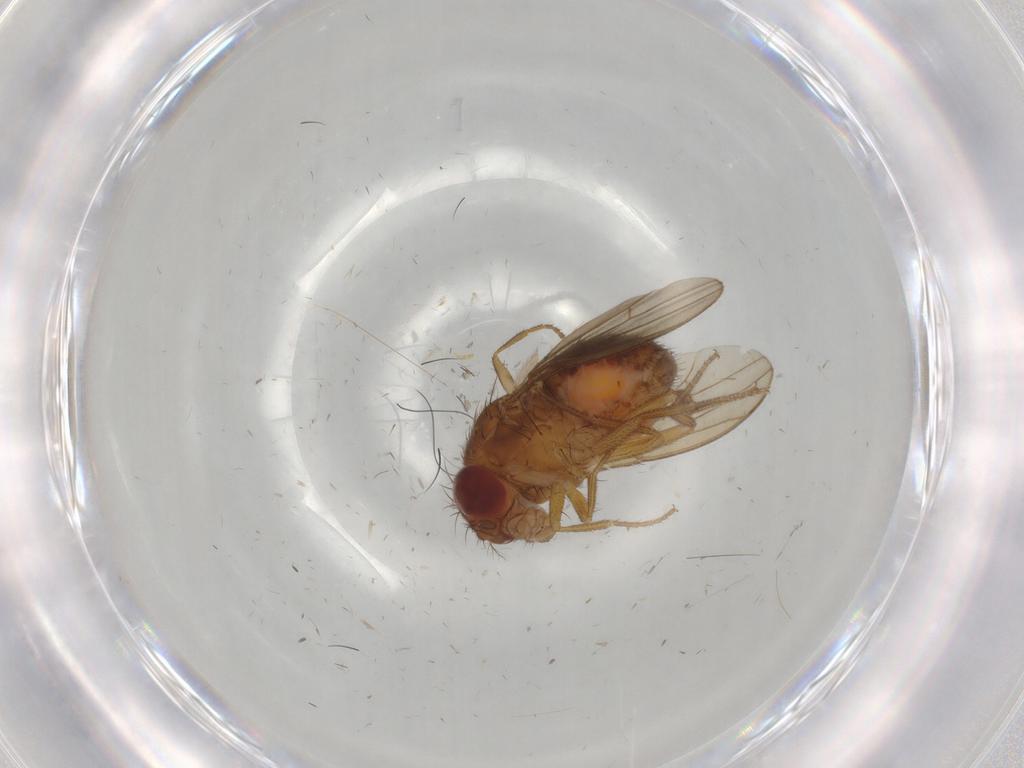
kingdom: Animalia
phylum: Arthropoda
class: Insecta
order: Diptera
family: Drosophilidae
